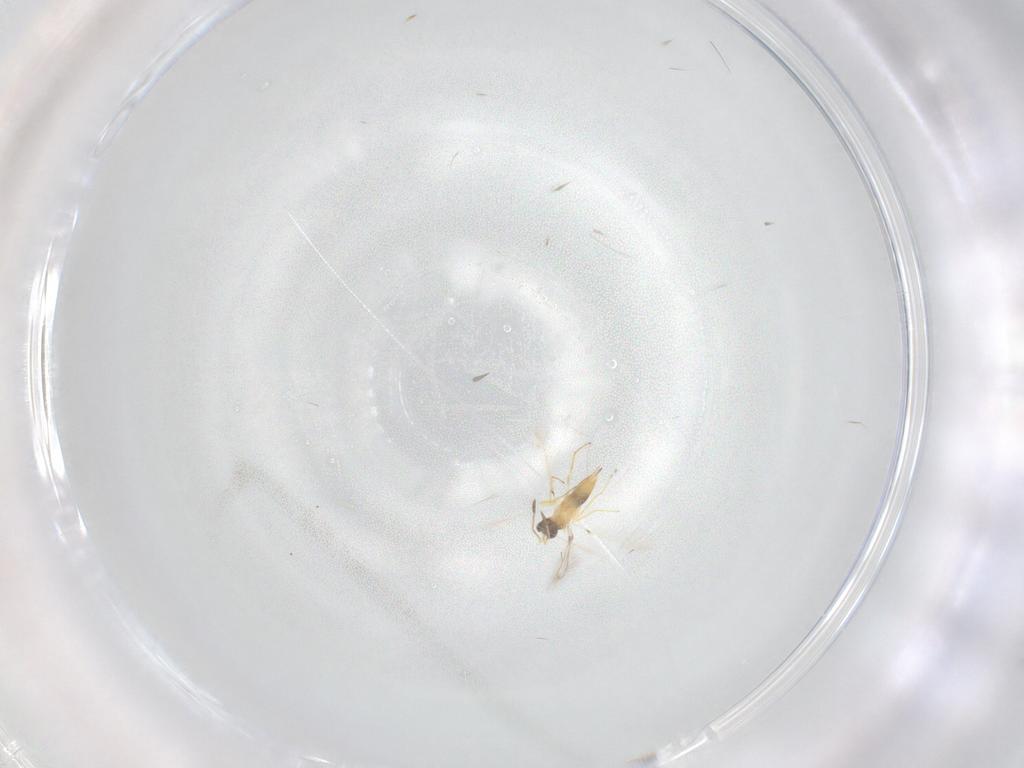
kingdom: Animalia
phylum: Arthropoda
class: Insecta
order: Hymenoptera
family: Mymaridae
